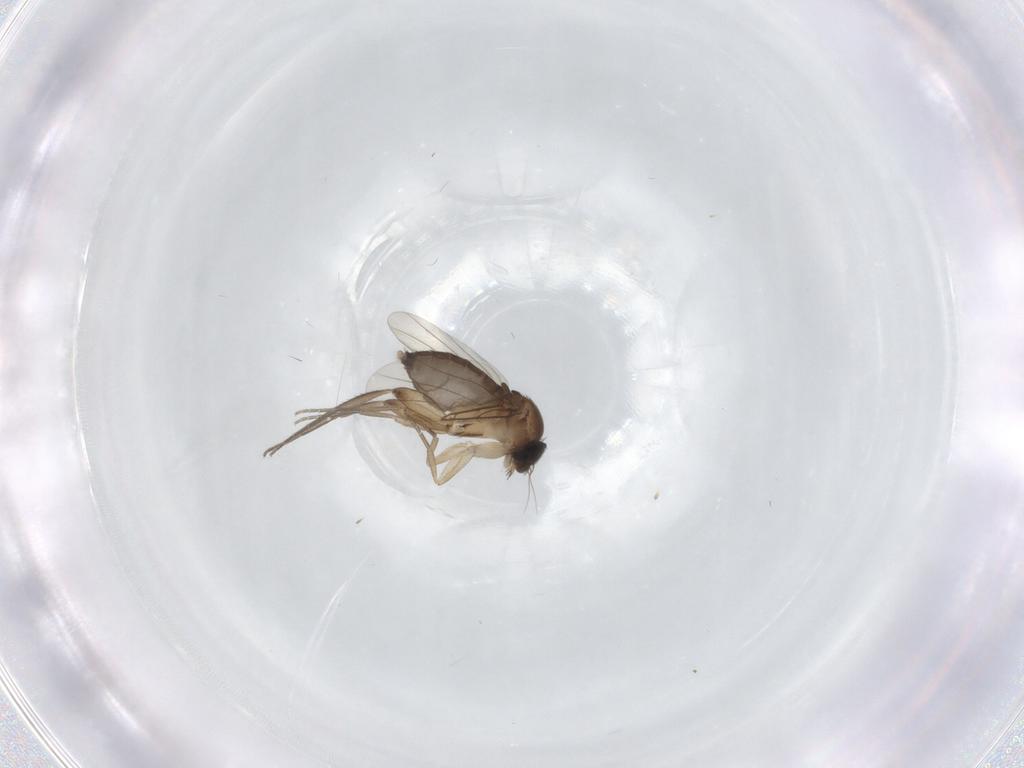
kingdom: Animalia
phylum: Arthropoda
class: Insecta
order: Diptera
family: Phoridae
